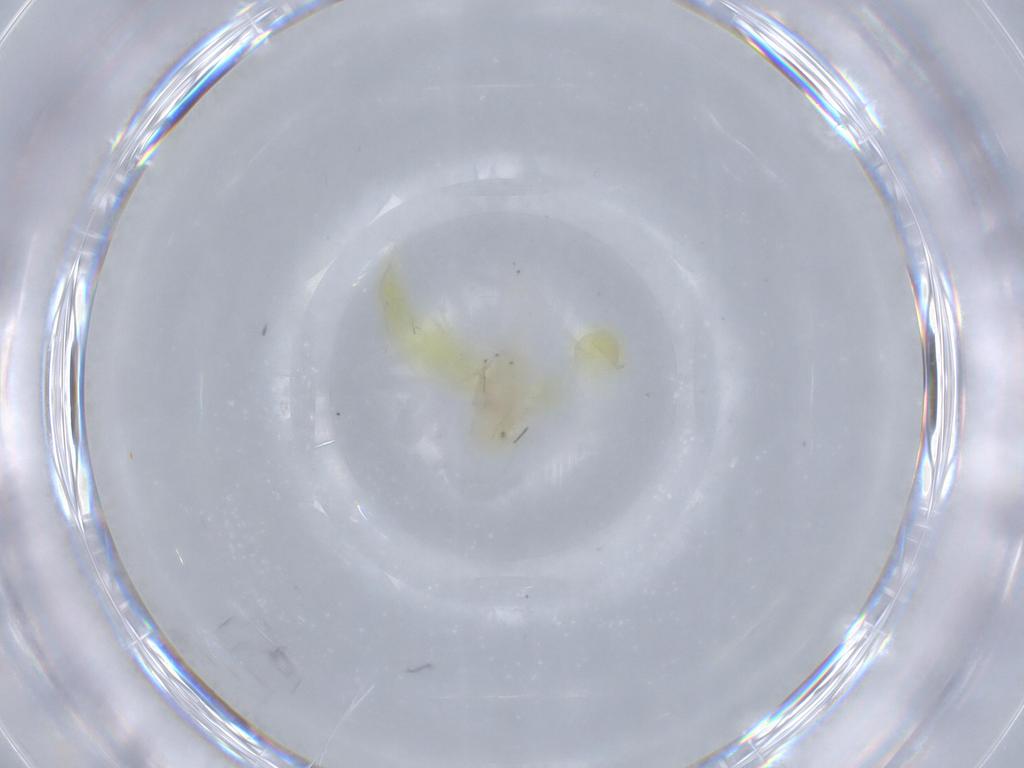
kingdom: Animalia
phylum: Arthropoda
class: Insecta
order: Hemiptera
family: Cicadellidae
